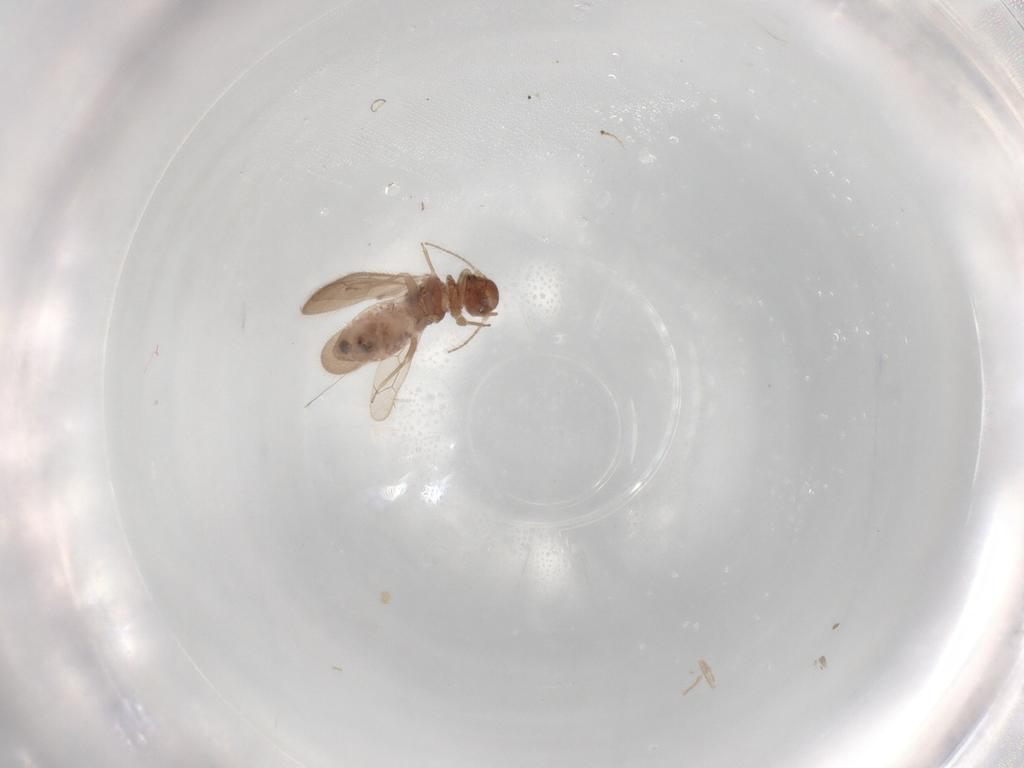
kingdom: Animalia
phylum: Arthropoda
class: Insecta
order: Psocodea
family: Archipsocidae
